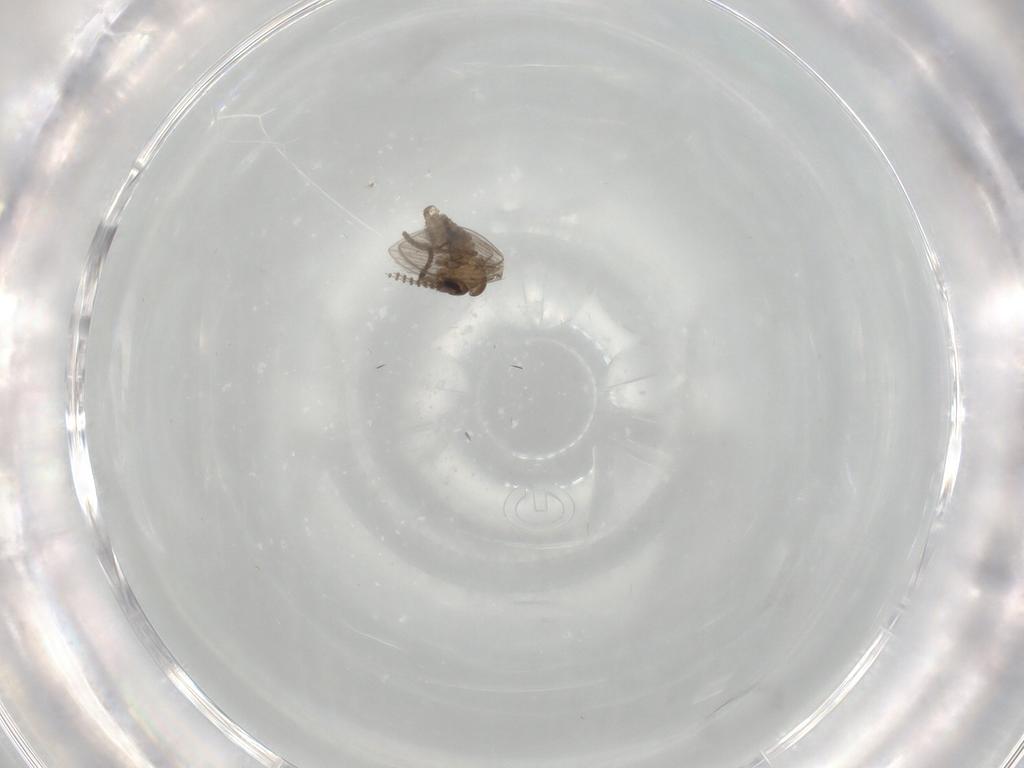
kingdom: Animalia
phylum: Arthropoda
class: Insecta
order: Diptera
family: Psychodidae
